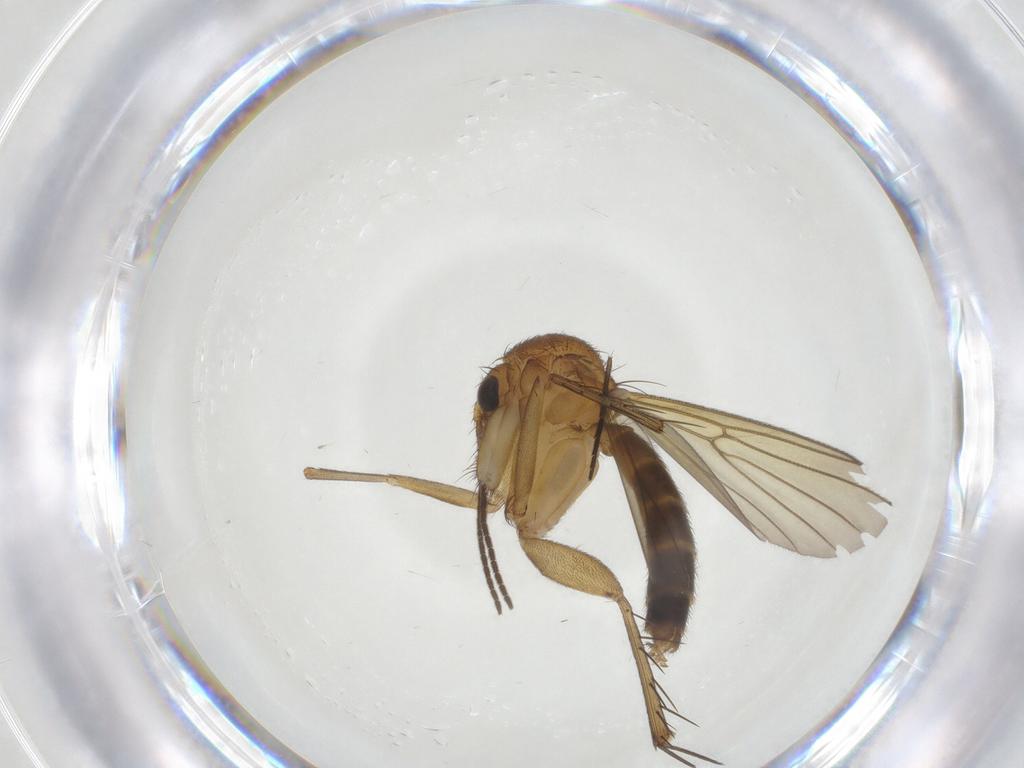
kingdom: Animalia
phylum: Arthropoda
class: Insecta
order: Diptera
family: Mycetophilidae
